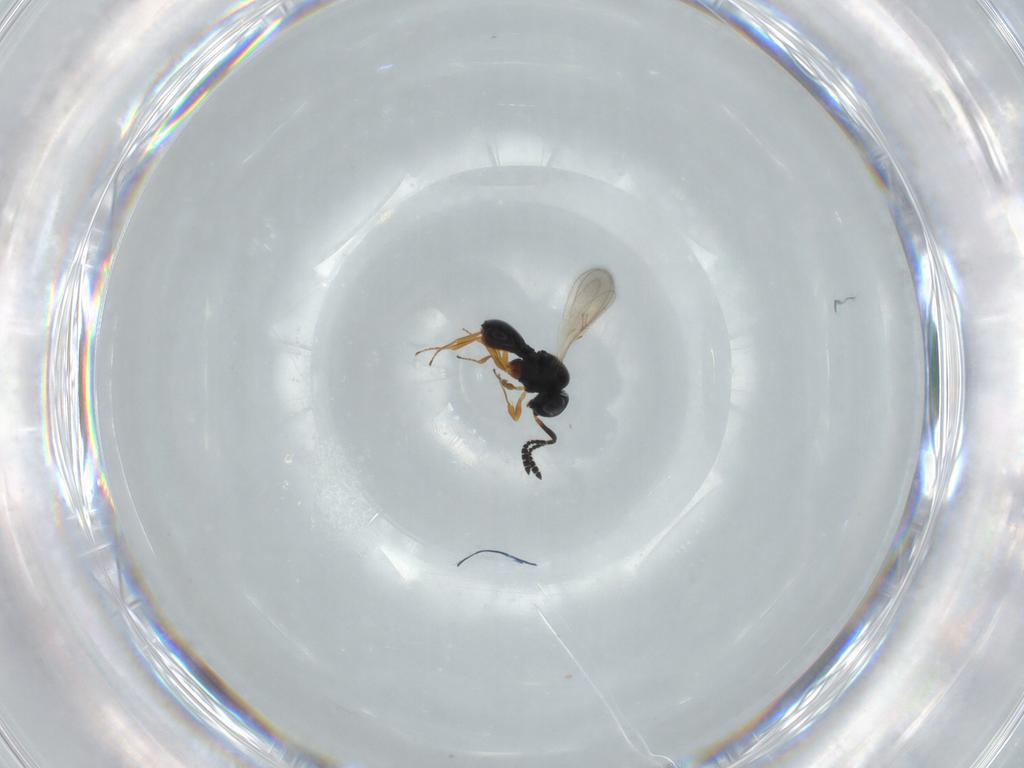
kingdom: Animalia
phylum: Arthropoda
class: Insecta
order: Hymenoptera
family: Scelionidae
